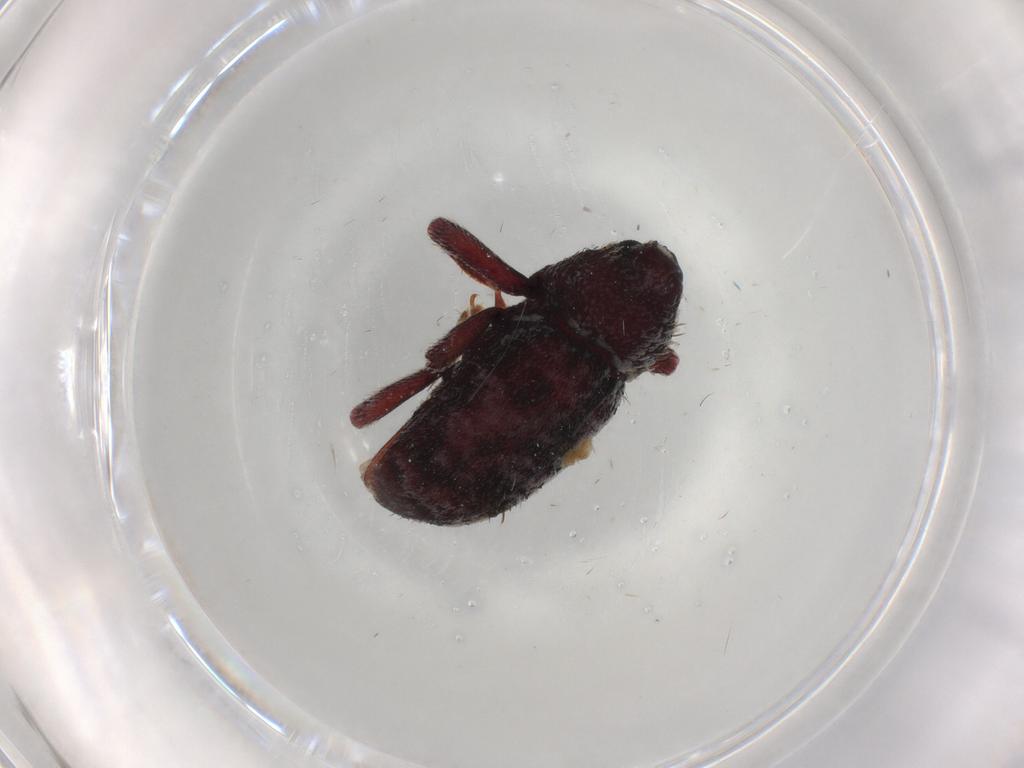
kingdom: Animalia
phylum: Arthropoda
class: Insecta
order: Coleoptera
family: Coccinellidae
